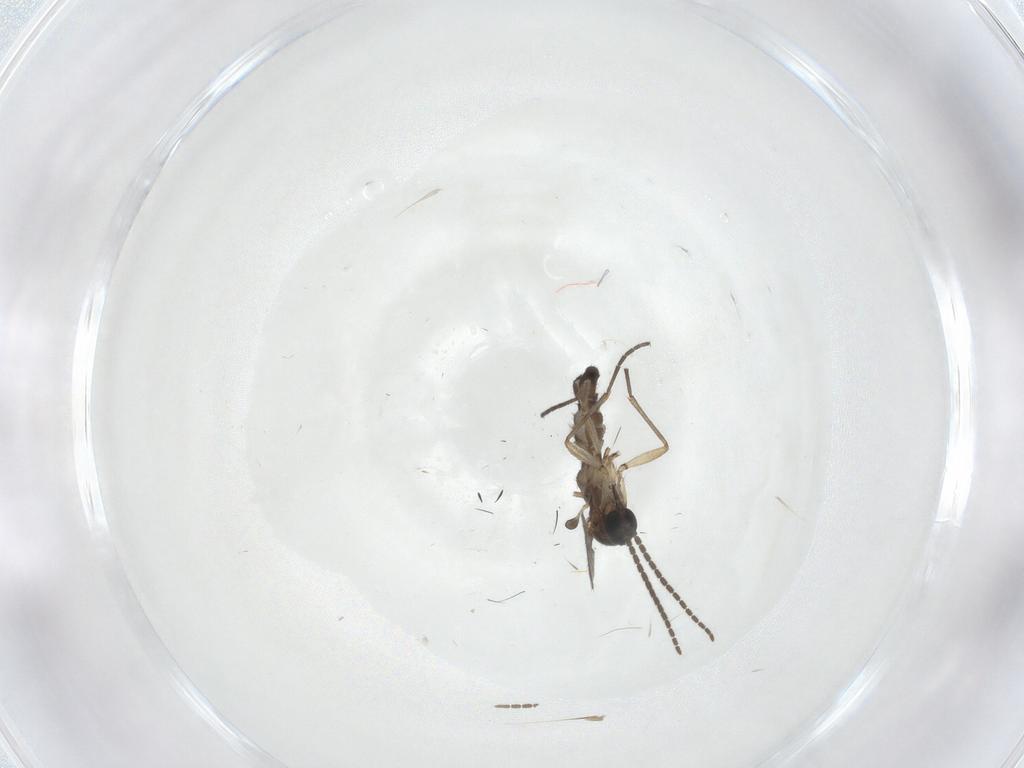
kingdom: Animalia
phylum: Arthropoda
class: Insecta
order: Diptera
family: Sciaridae
